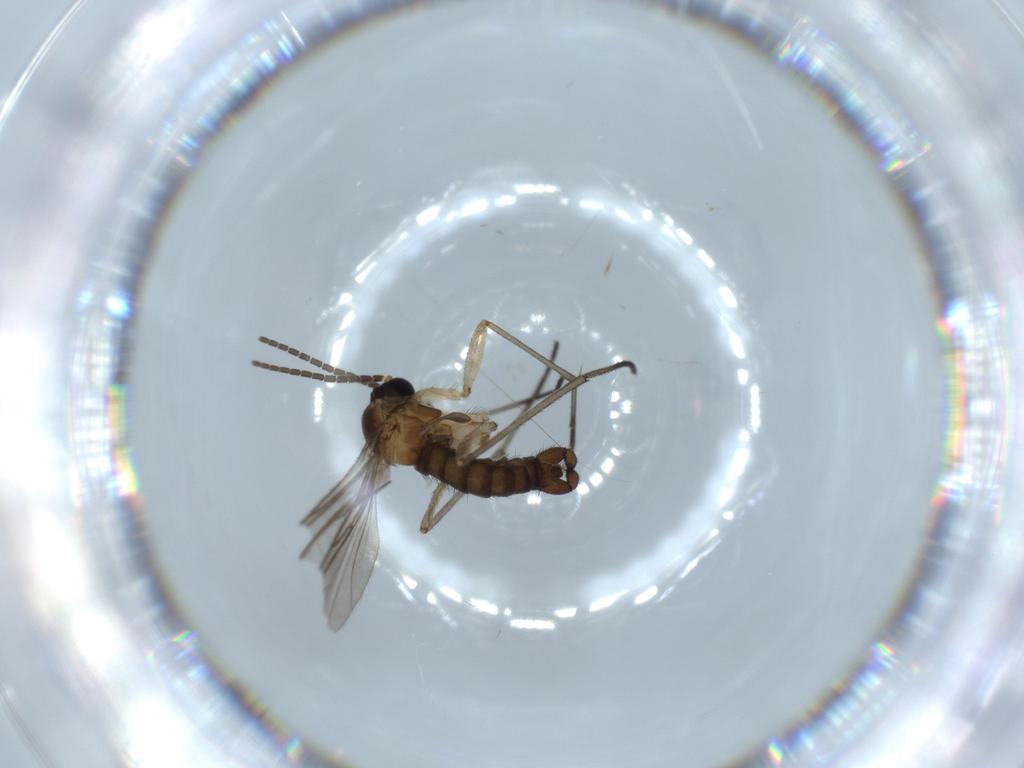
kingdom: Animalia
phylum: Arthropoda
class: Insecta
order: Diptera
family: Sciaridae
